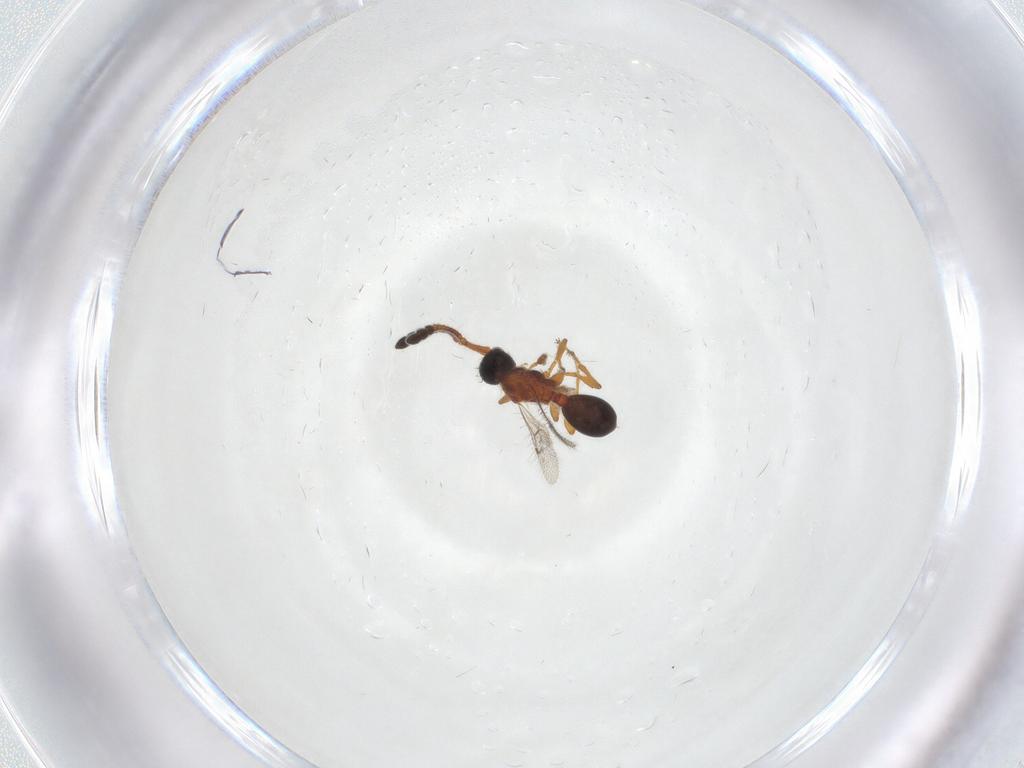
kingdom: Animalia
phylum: Arthropoda
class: Insecta
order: Hymenoptera
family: Diapriidae
